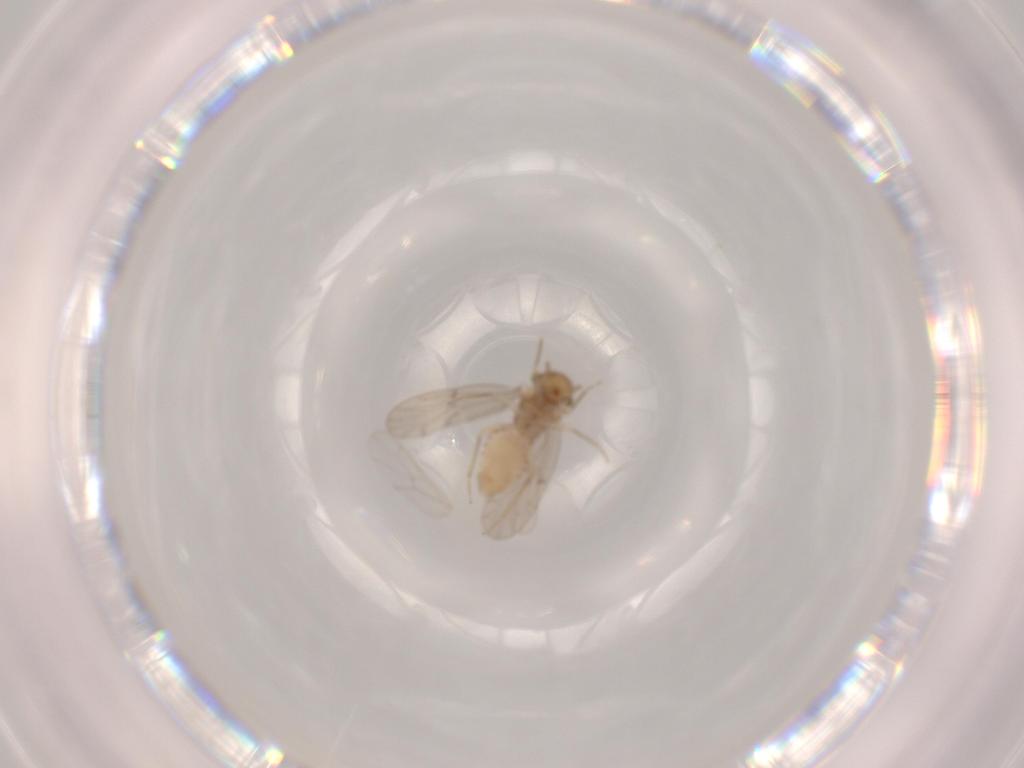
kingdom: Animalia
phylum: Arthropoda
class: Insecta
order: Psocodea
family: Ectopsocidae
